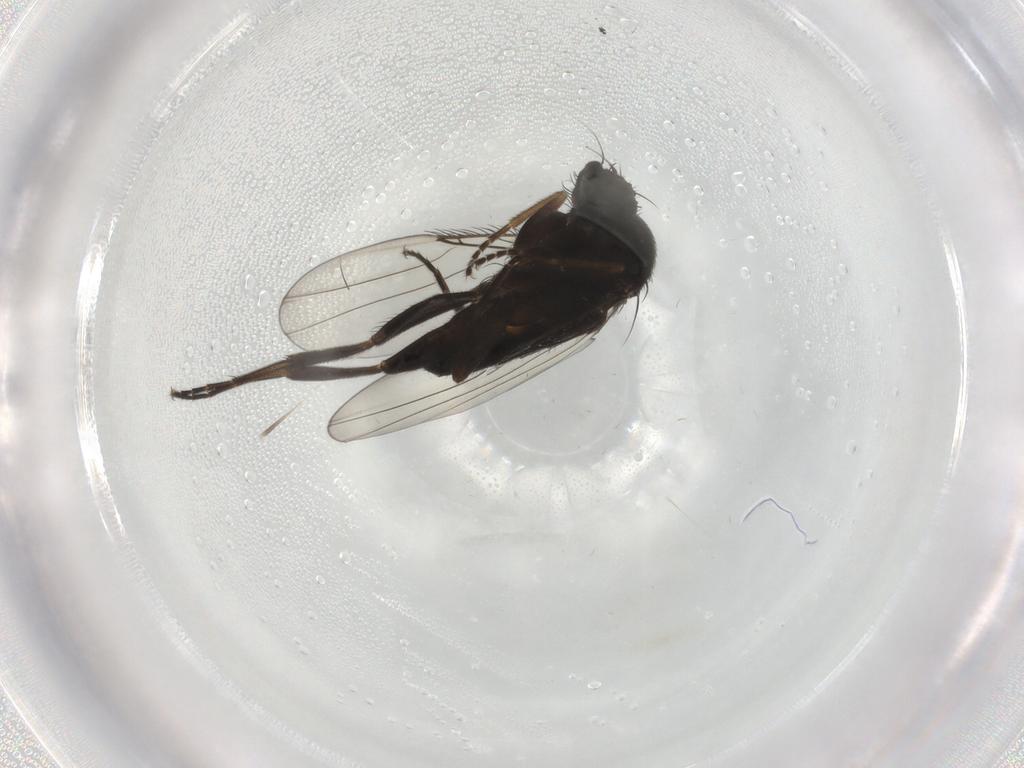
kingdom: Animalia
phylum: Arthropoda
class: Insecta
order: Diptera
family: Phoridae
